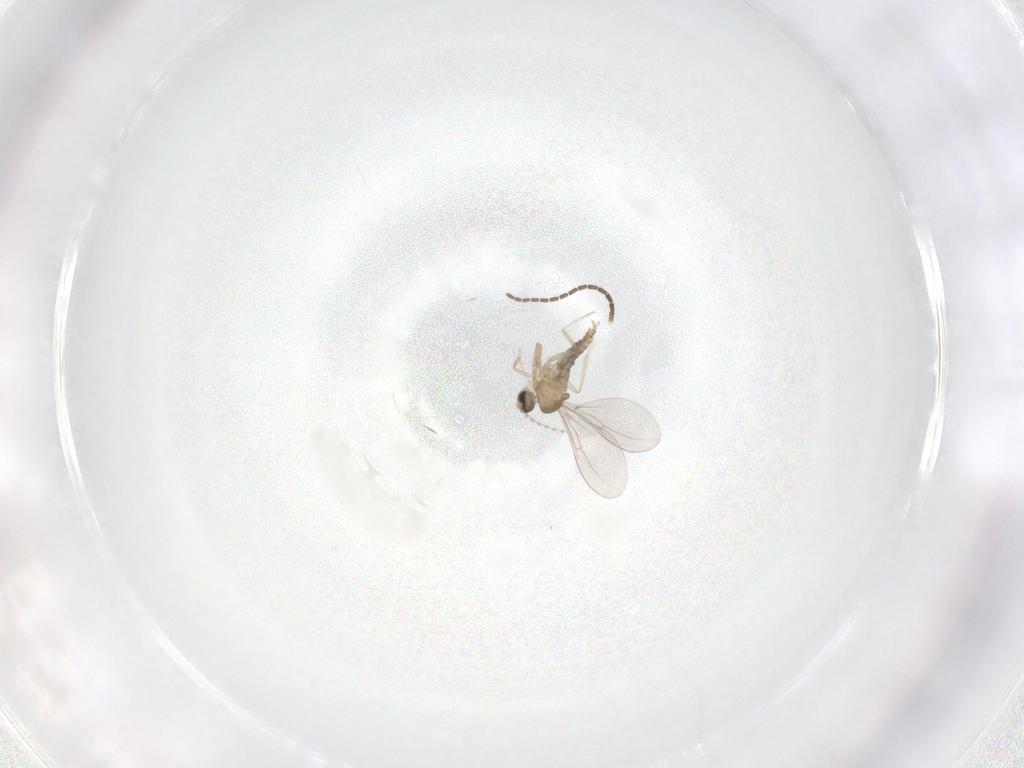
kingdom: Animalia
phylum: Arthropoda
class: Insecta
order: Diptera
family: Cecidomyiidae
